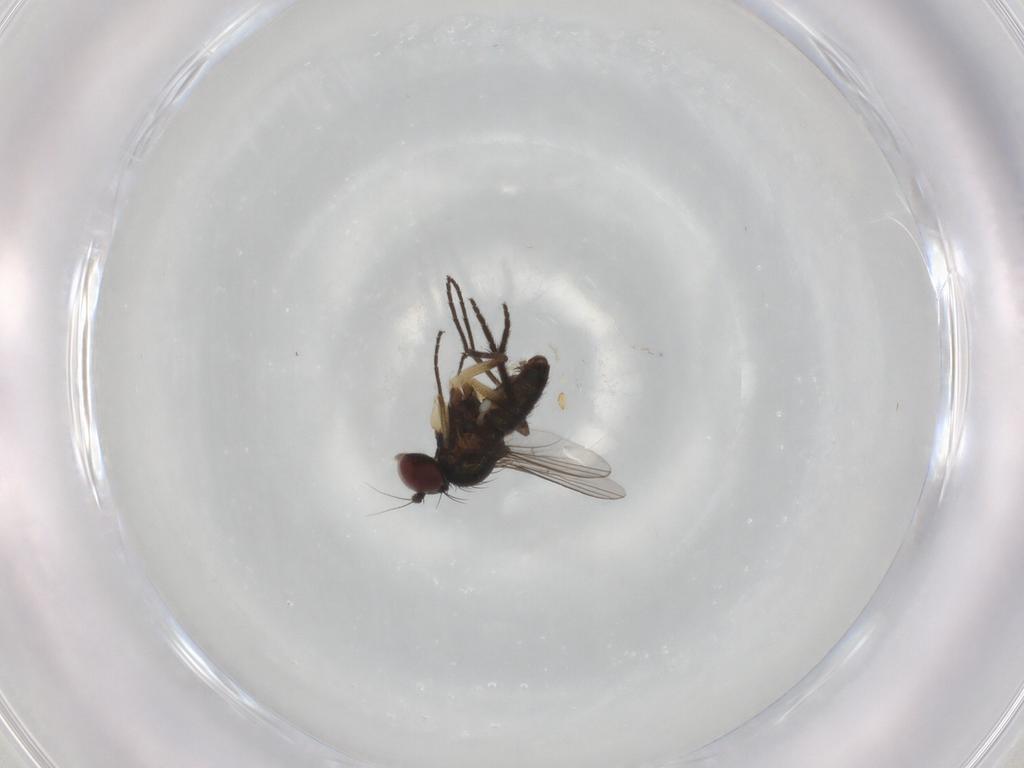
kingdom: Animalia
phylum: Arthropoda
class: Insecta
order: Diptera
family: Dolichopodidae
